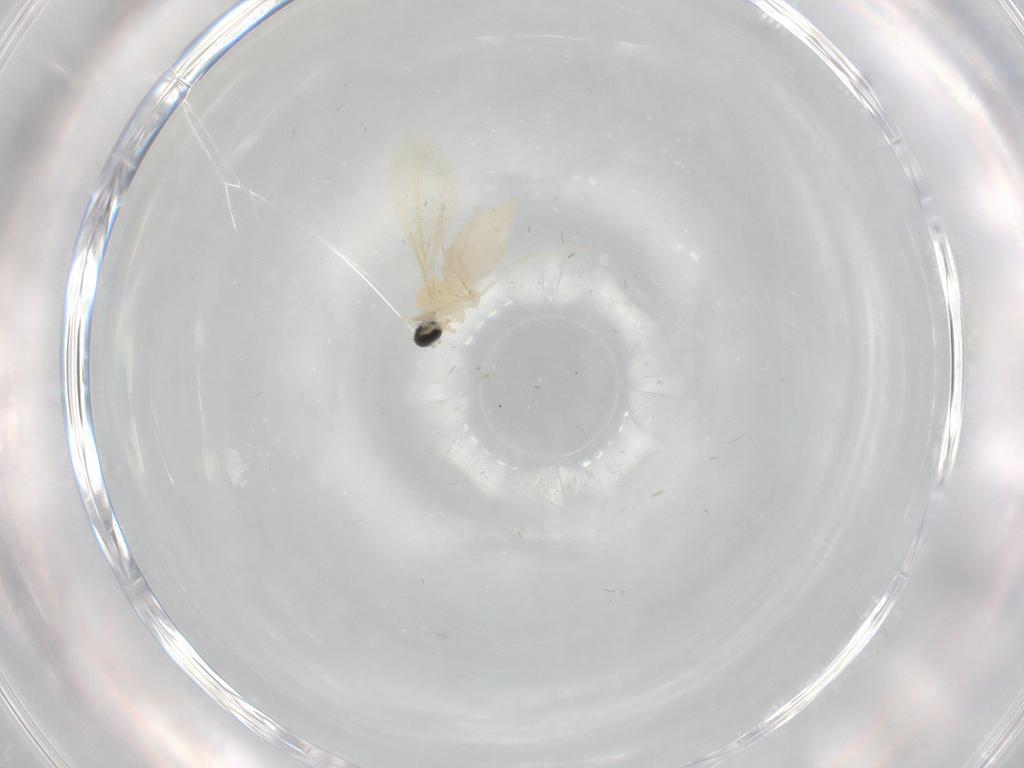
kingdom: Animalia
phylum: Arthropoda
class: Insecta
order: Diptera
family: Cecidomyiidae
